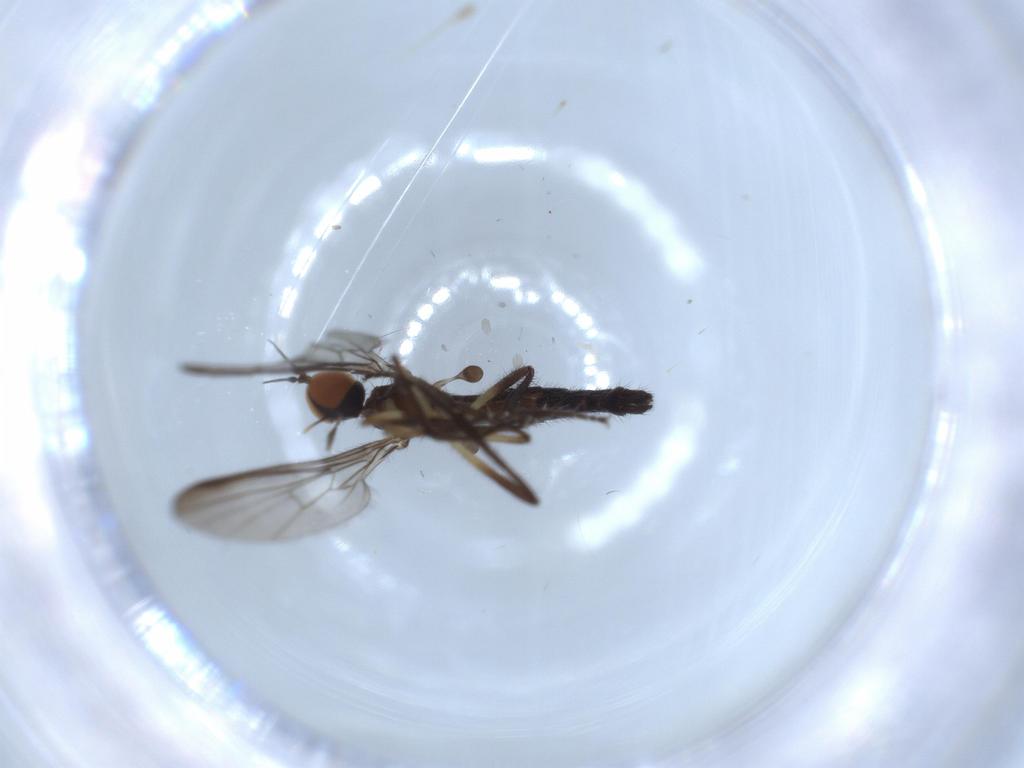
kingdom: Animalia
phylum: Arthropoda
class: Insecta
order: Diptera
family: Empididae
